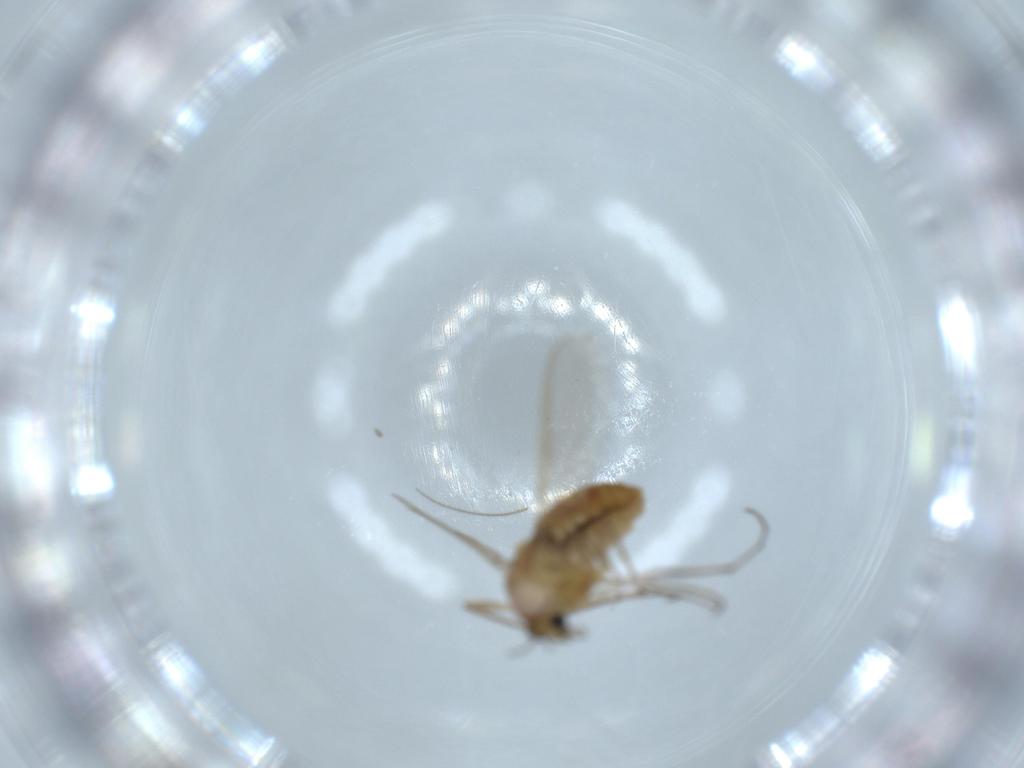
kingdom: Animalia
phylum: Arthropoda
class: Insecta
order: Diptera
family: Chironomidae
